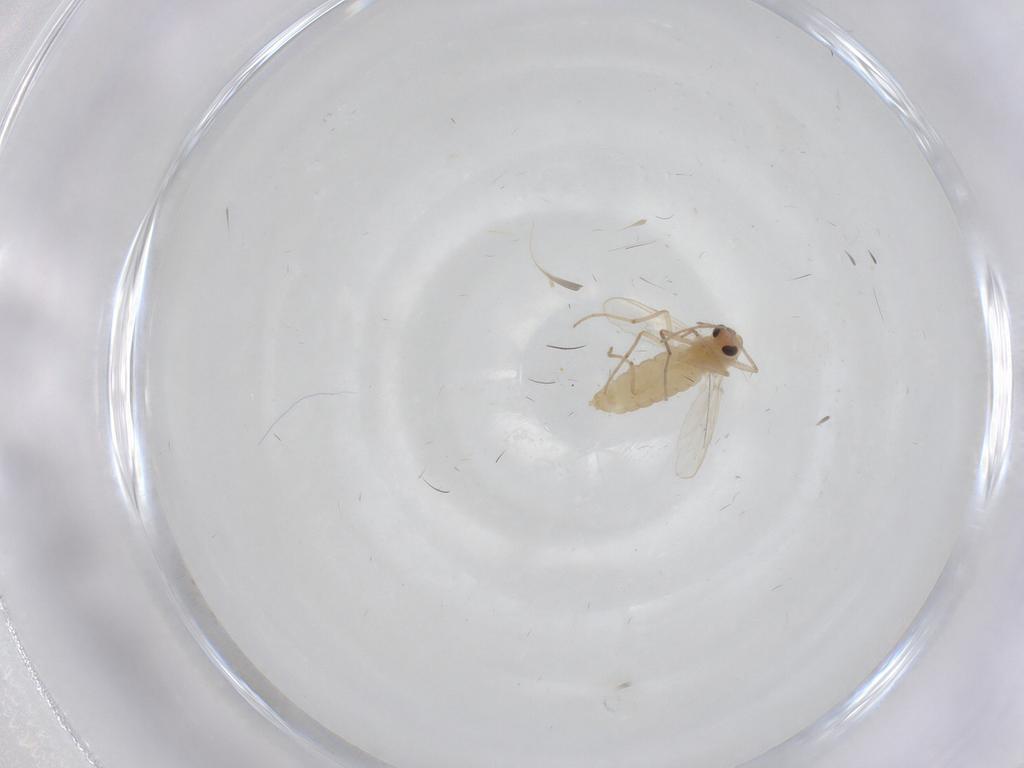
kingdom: Animalia
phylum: Arthropoda
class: Insecta
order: Diptera
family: Chironomidae
